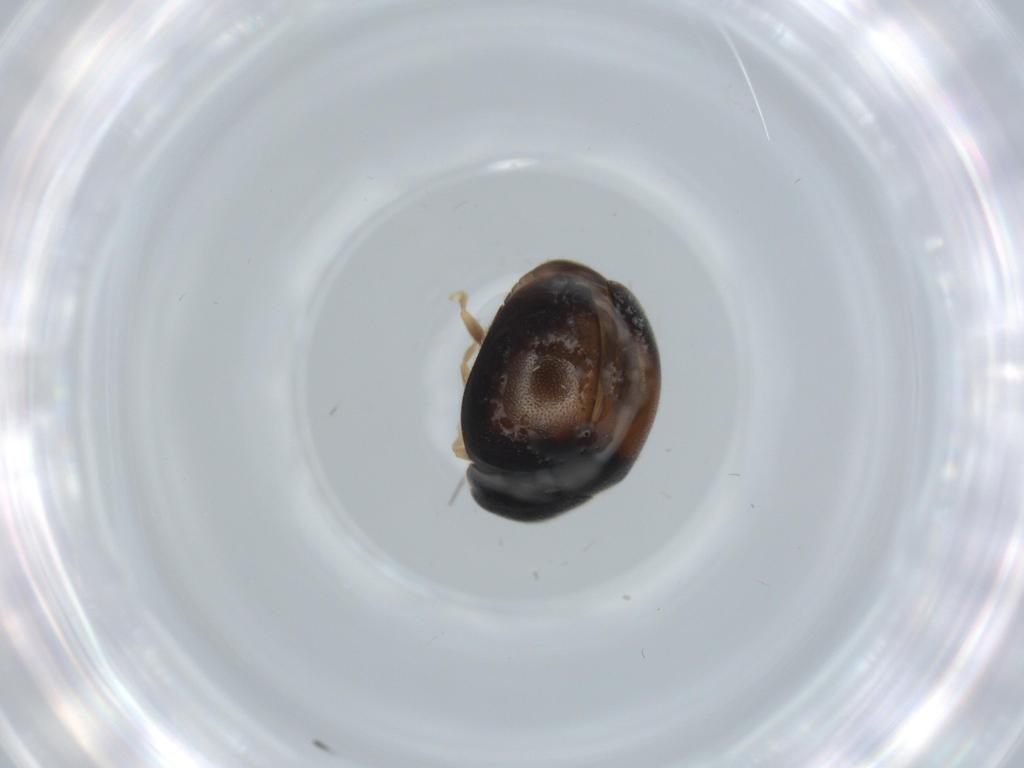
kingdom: Animalia
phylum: Arthropoda
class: Insecta
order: Coleoptera
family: Coccinellidae
